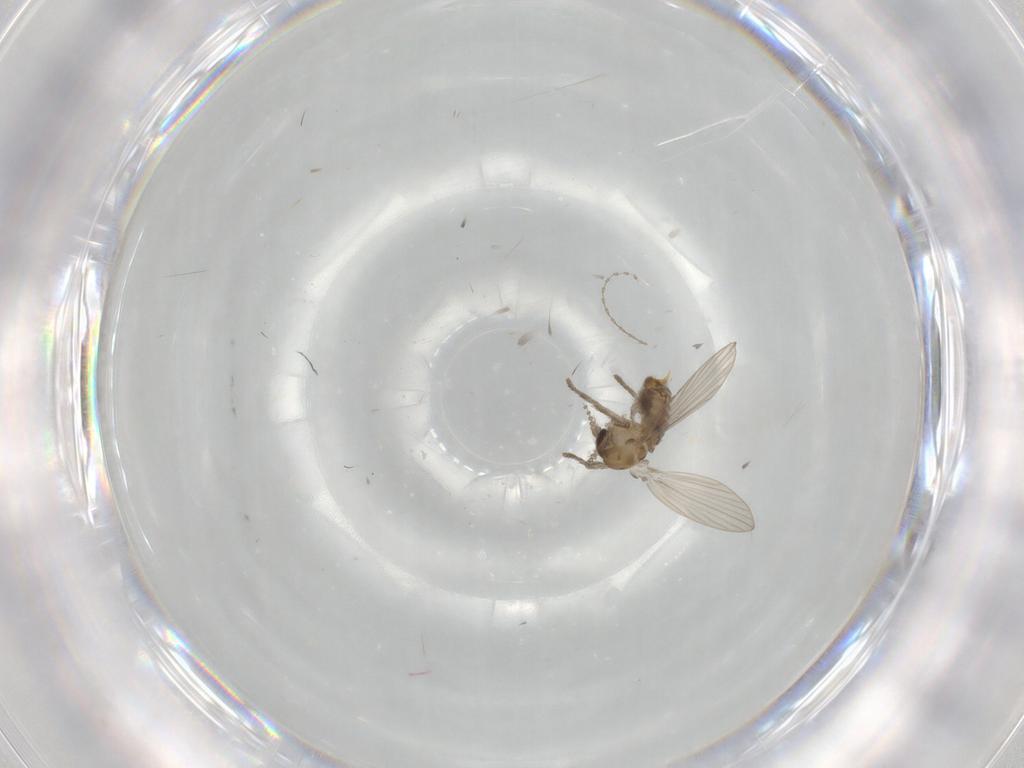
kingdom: Animalia
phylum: Arthropoda
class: Insecta
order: Diptera
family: Psychodidae
